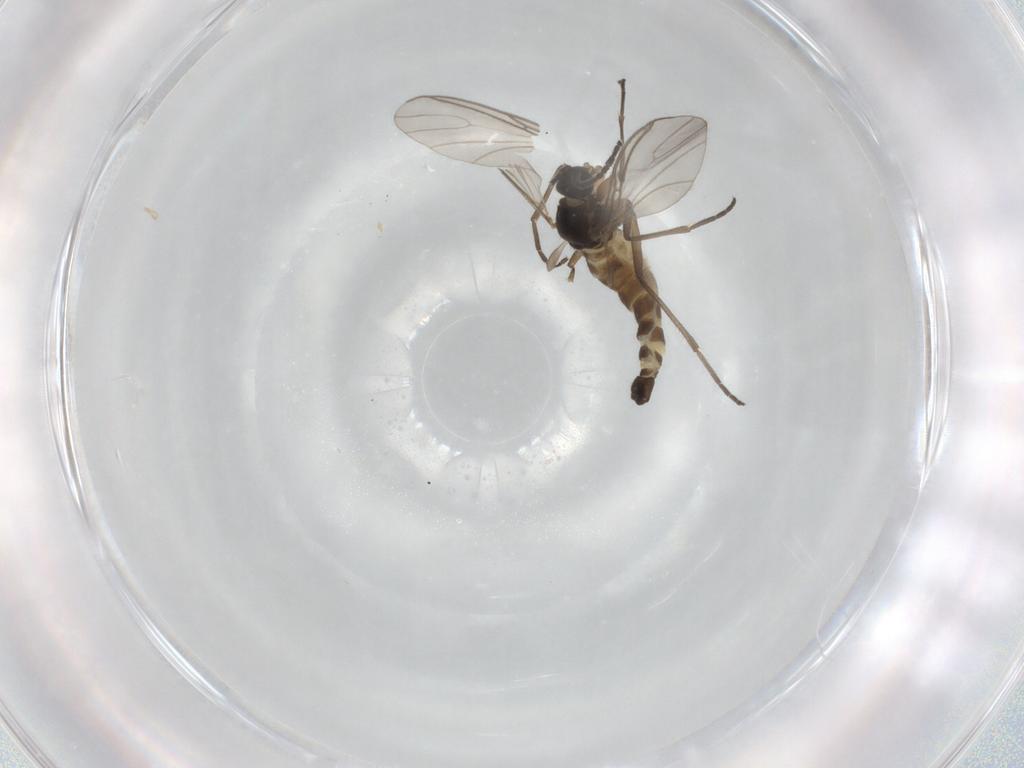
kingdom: Animalia
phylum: Arthropoda
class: Insecta
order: Diptera
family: Sciaridae
